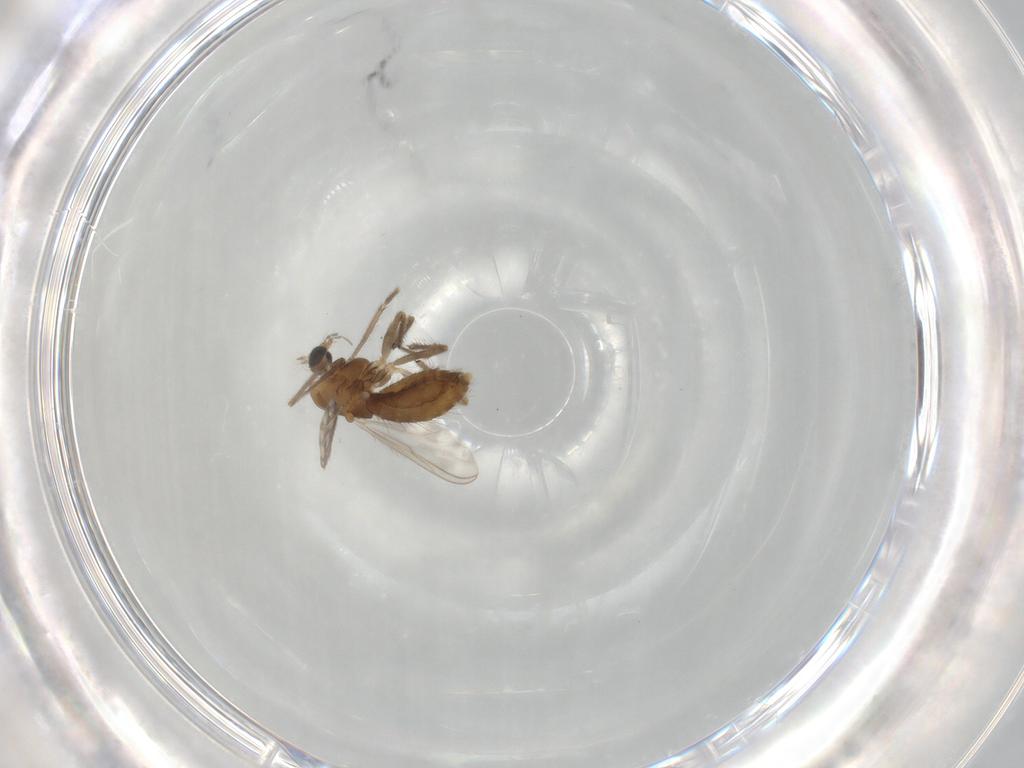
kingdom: Animalia
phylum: Arthropoda
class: Insecta
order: Diptera
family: Chironomidae
